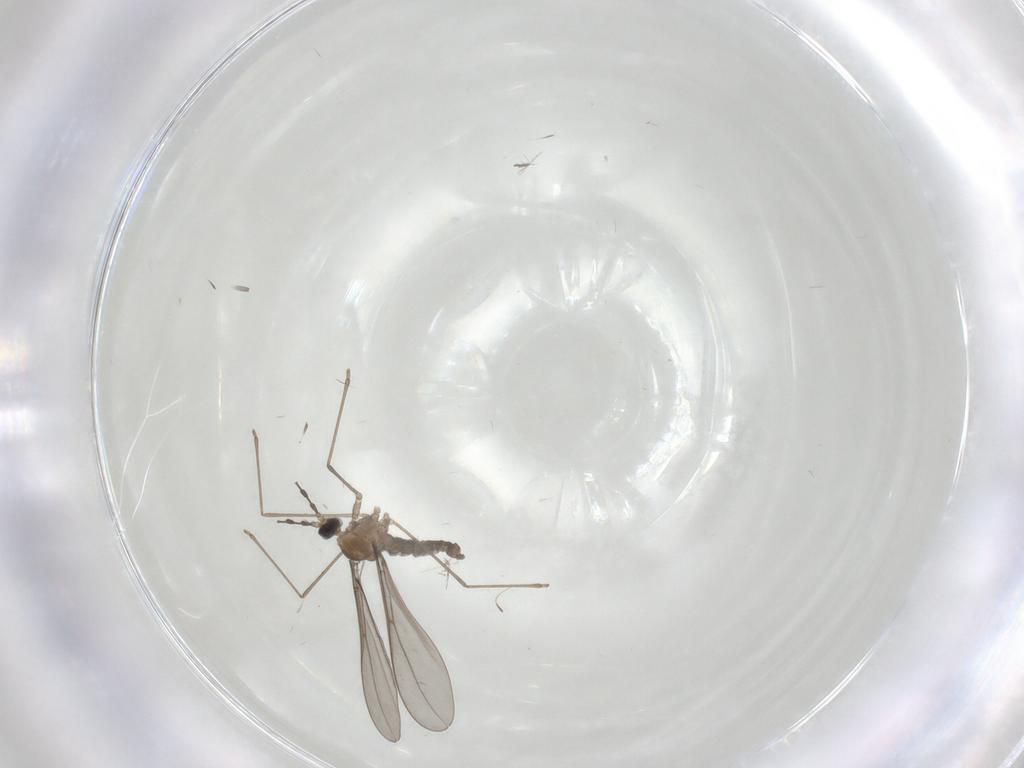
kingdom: Animalia
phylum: Arthropoda
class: Insecta
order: Diptera
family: Cecidomyiidae
